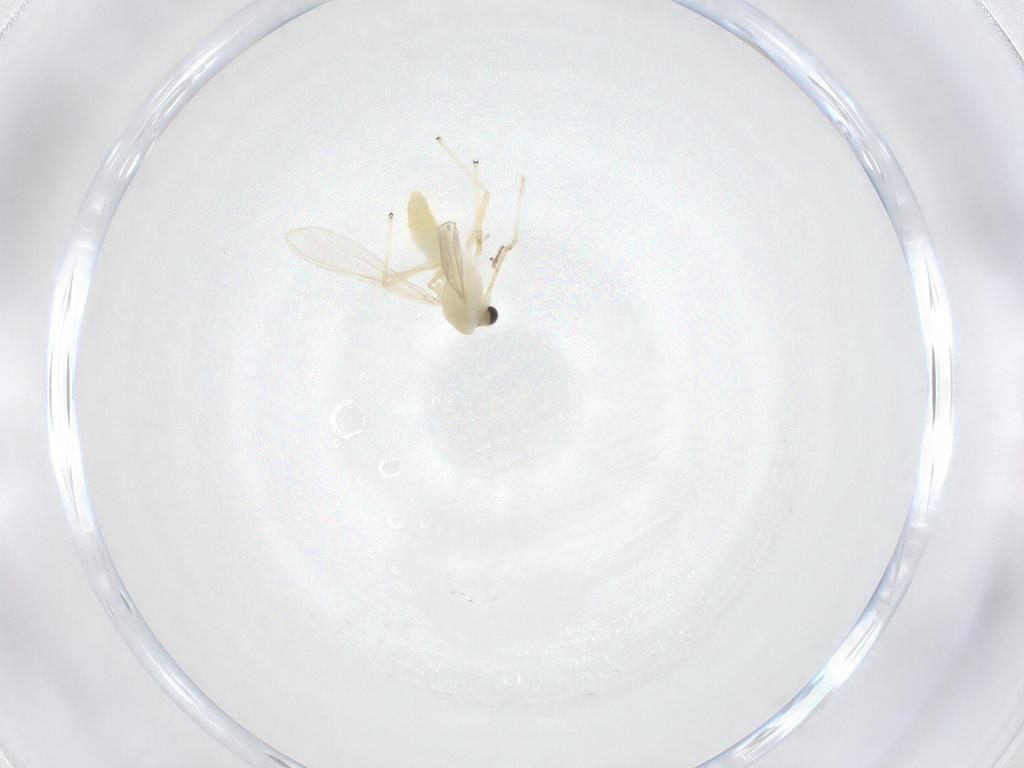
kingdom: Animalia
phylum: Arthropoda
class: Insecta
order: Diptera
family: Chironomidae
